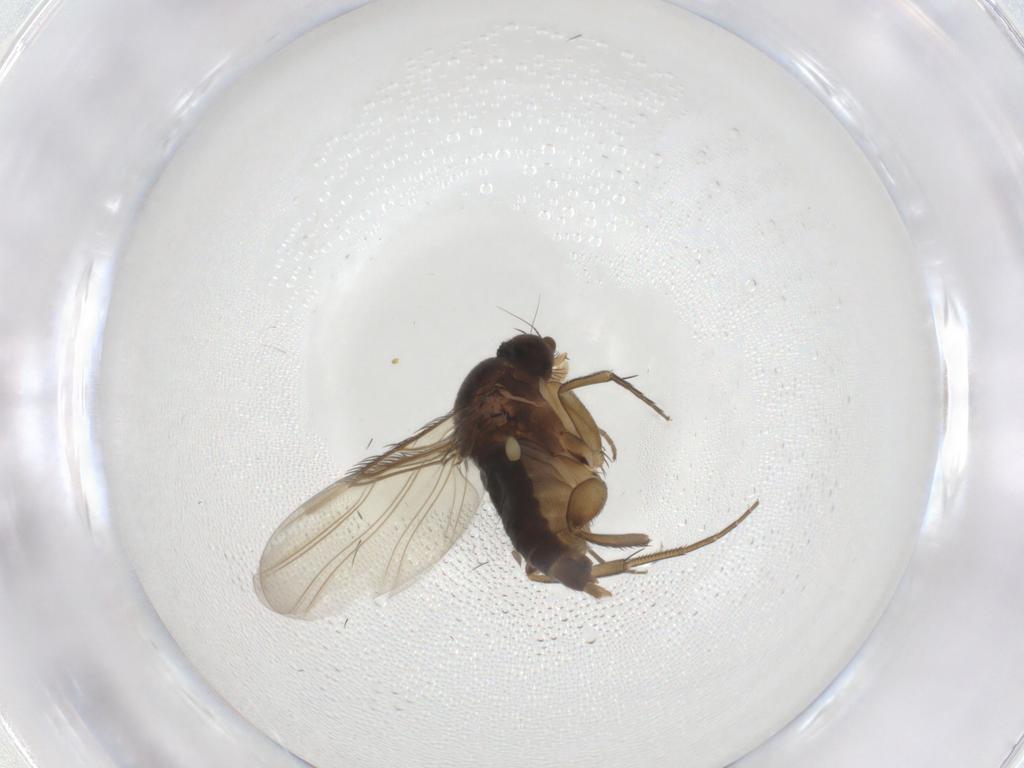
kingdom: Animalia
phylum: Arthropoda
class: Insecta
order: Diptera
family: Phoridae
